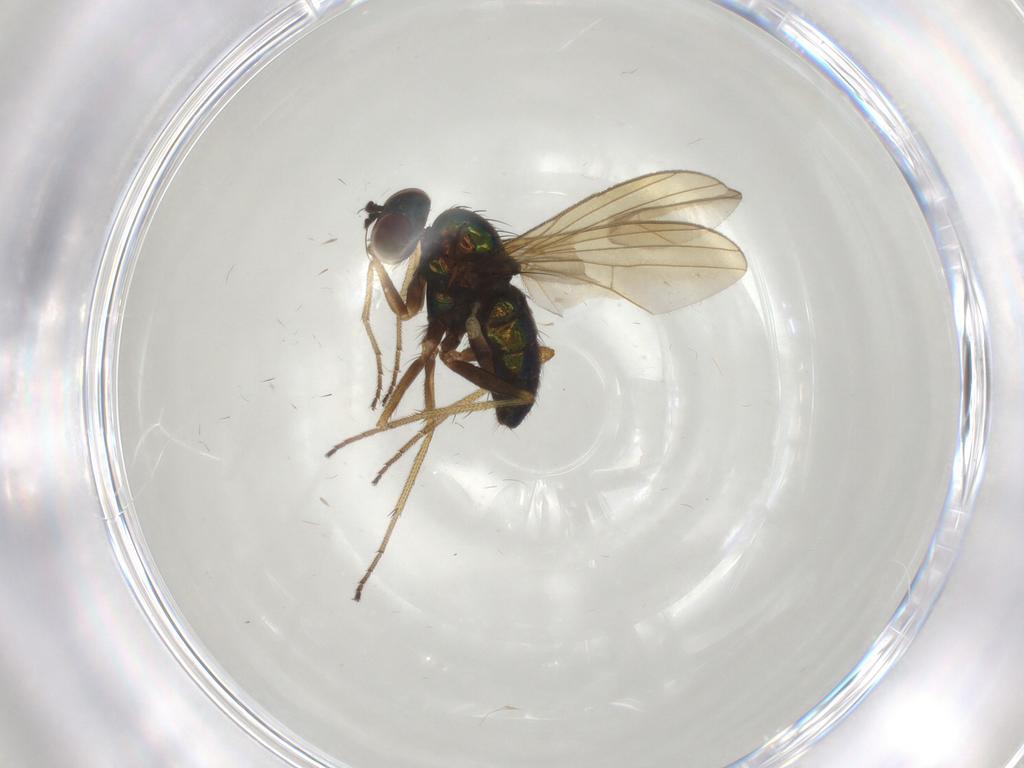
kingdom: Animalia
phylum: Arthropoda
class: Insecta
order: Diptera
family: Dolichopodidae
